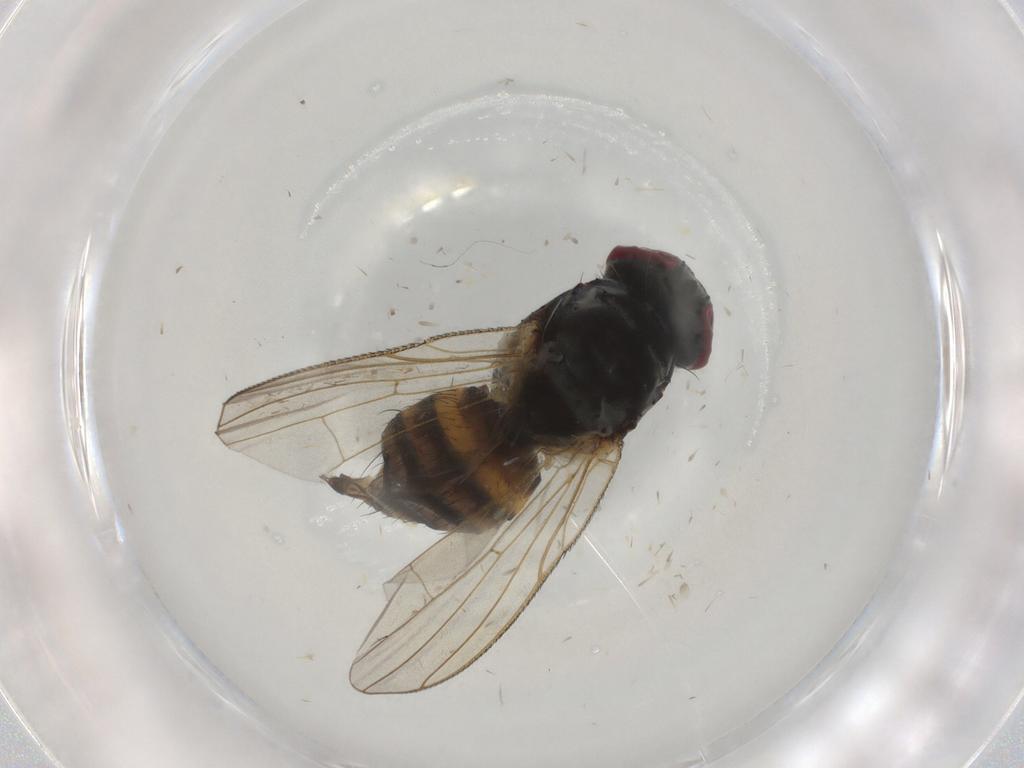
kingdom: Animalia
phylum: Arthropoda
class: Insecta
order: Diptera
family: Anthomyiidae
